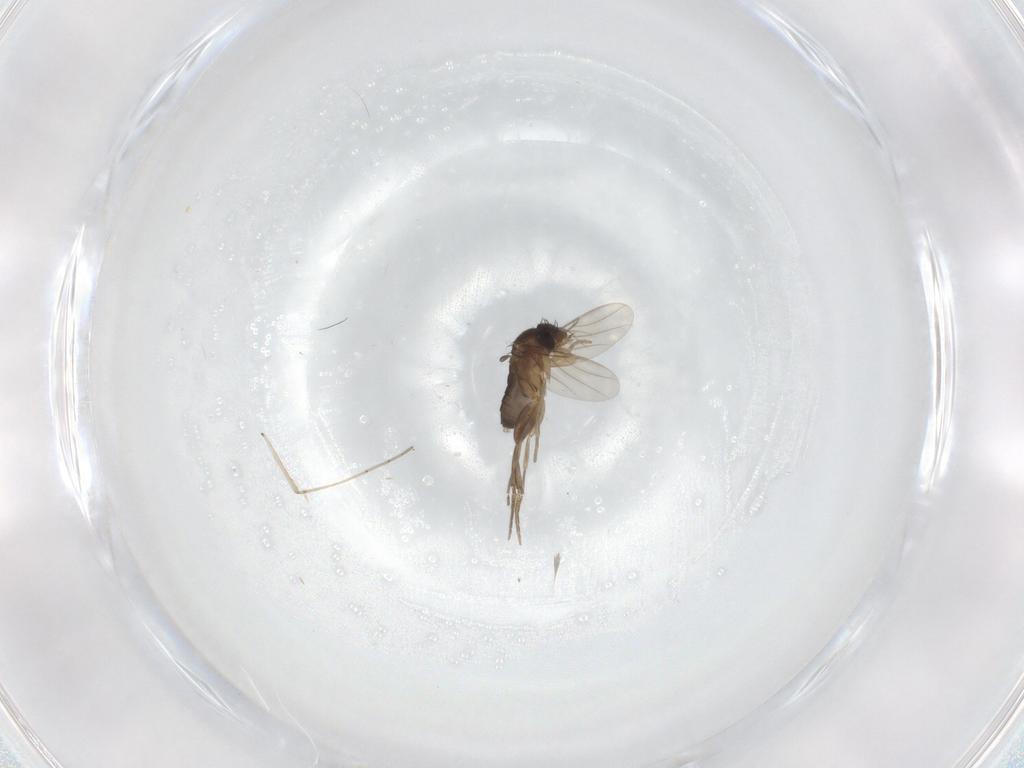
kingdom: Animalia
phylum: Arthropoda
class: Insecta
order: Diptera
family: Phoridae
